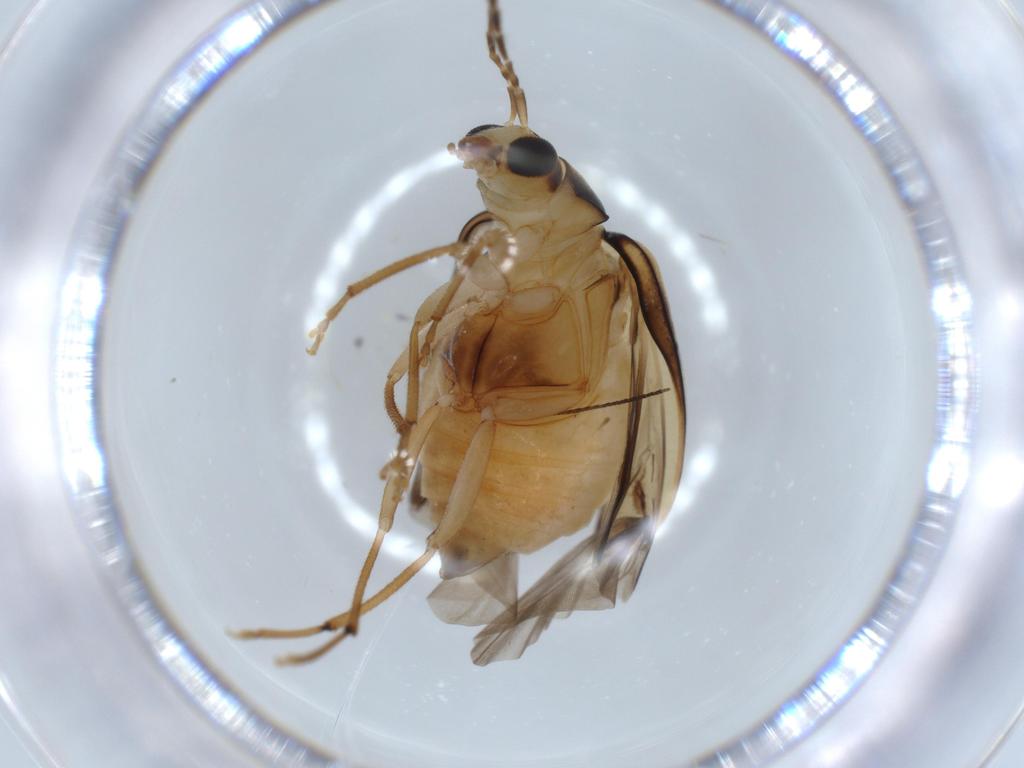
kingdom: Animalia
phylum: Arthropoda
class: Insecta
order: Coleoptera
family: Chrysomelidae
